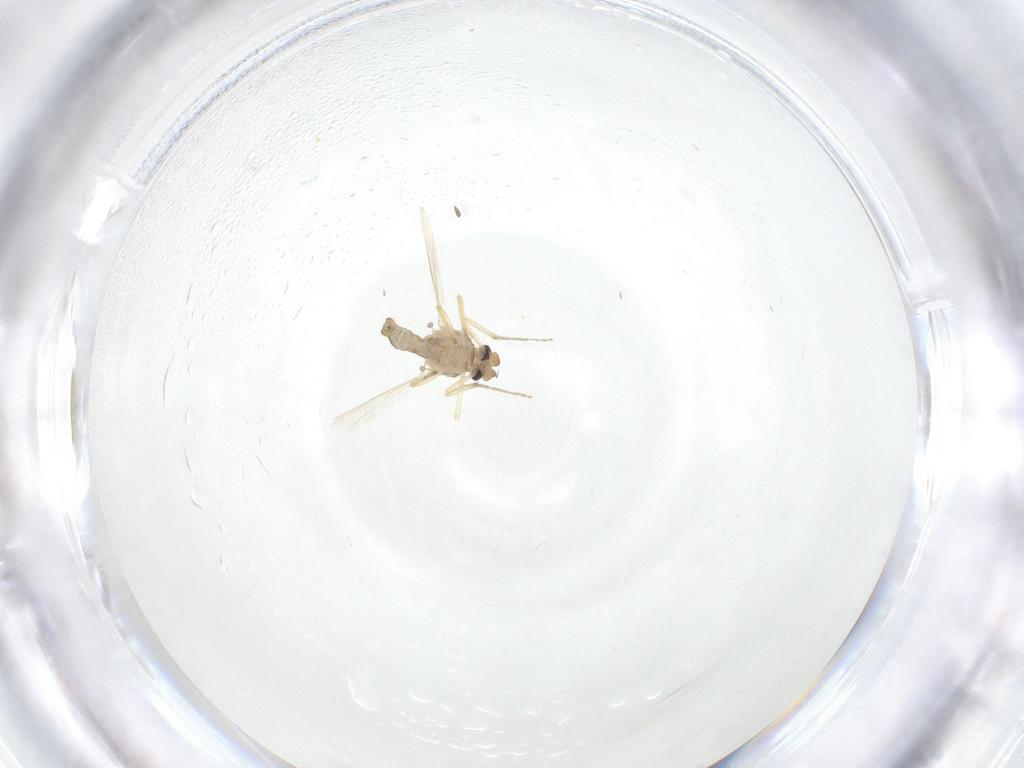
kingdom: Animalia
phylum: Arthropoda
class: Insecta
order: Diptera
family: Ceratopogonidae
